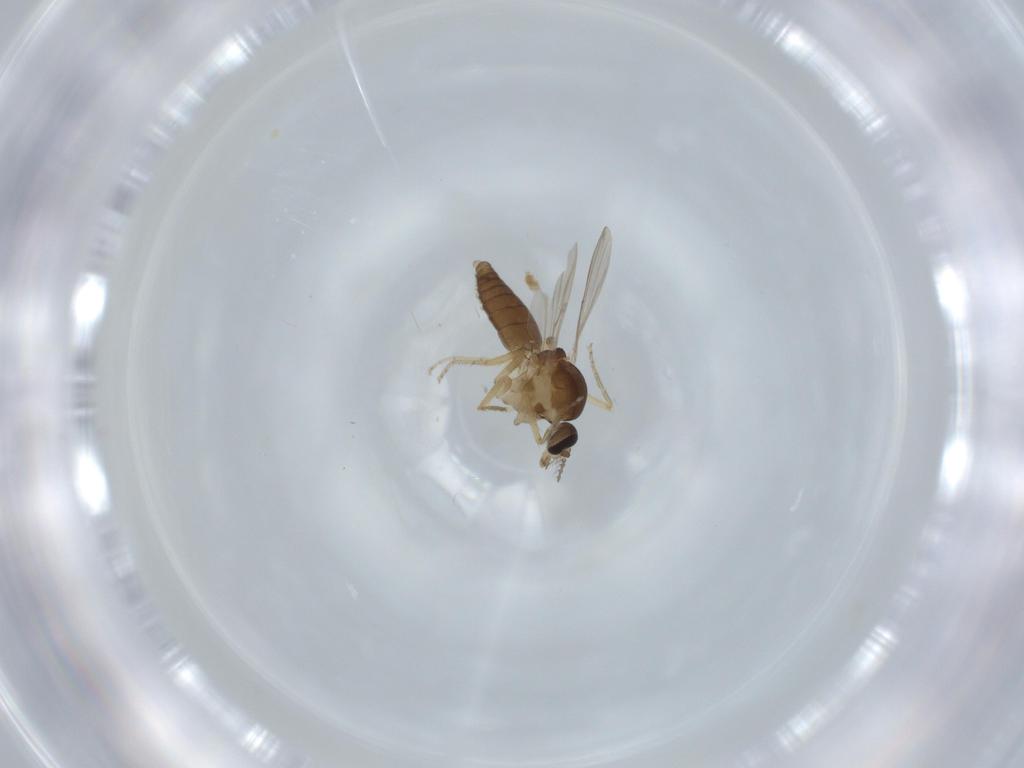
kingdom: Animalia
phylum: Arthropoda
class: Insecta
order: Diptera
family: Ceratopogonidae
